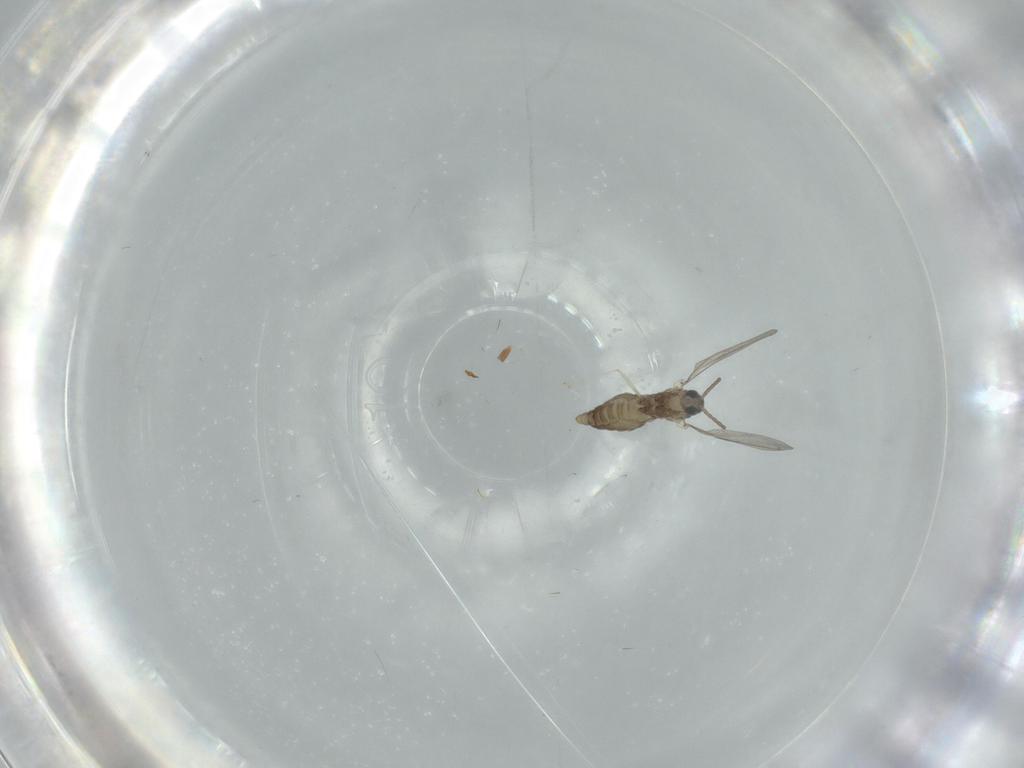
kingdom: Animalia
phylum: Arthropoda
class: Insecta
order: Diptera
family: Cecidomyiidae
